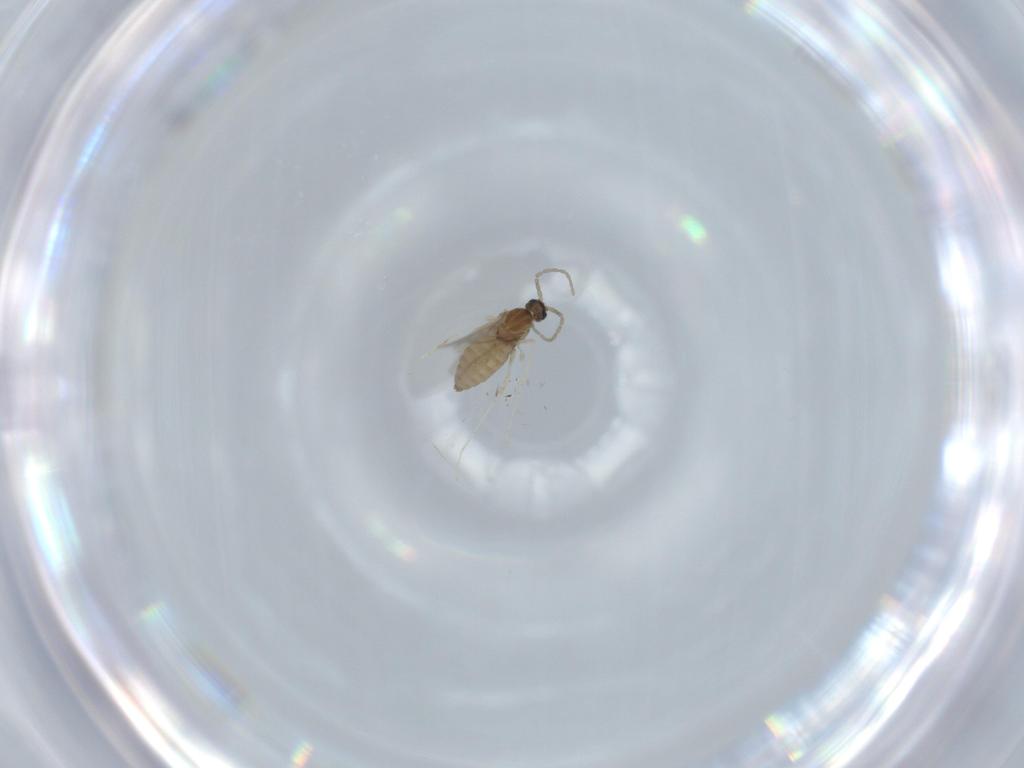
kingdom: Animalia
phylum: Arthropoda
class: Insecta
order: Diptera
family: Cecidomyiidae
